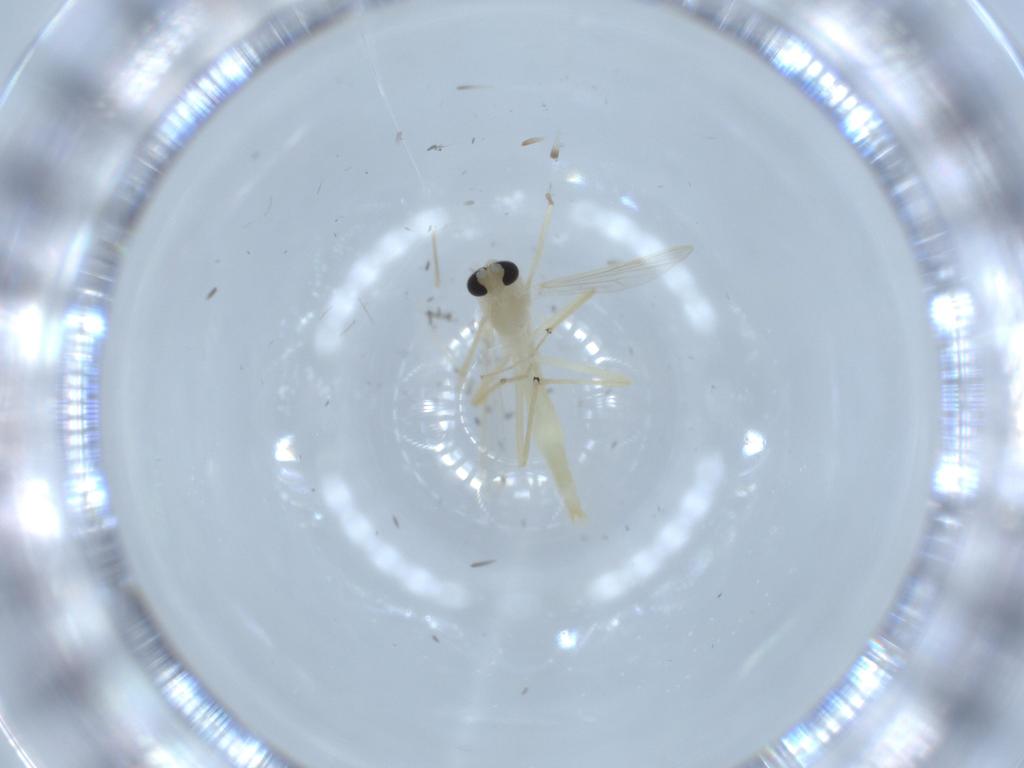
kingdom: Animalia
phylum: Arthropoda
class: Insecta
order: Diptera
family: Chironomidae
